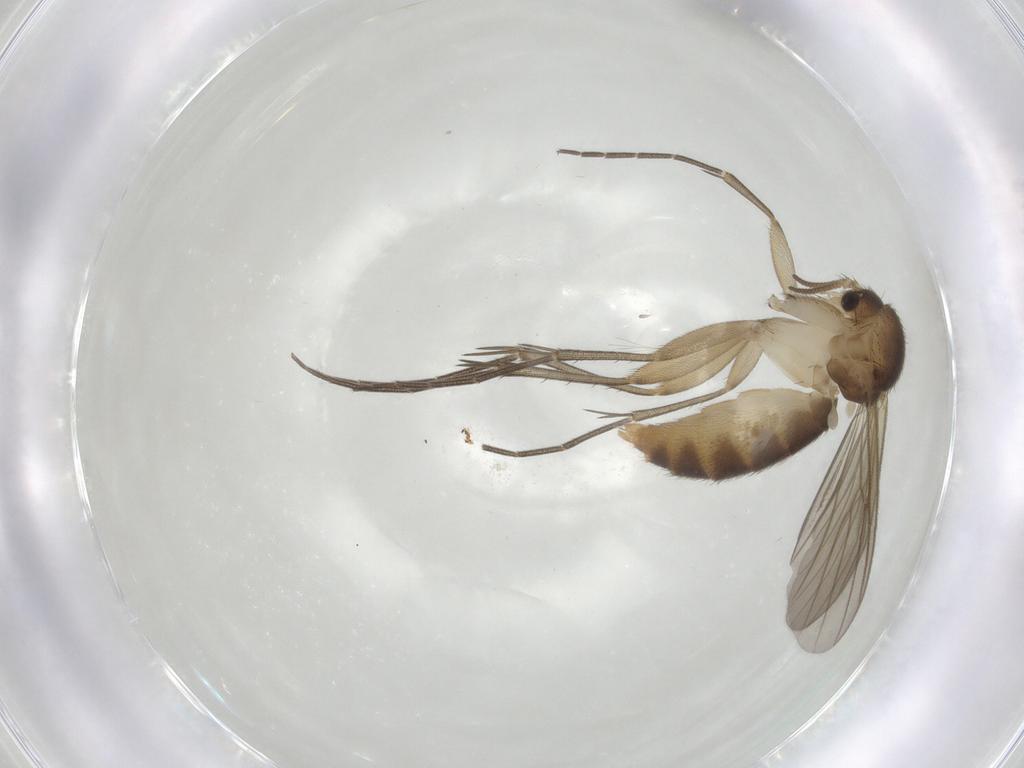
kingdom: Animalia
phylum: Arthropoda
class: Insecta
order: Diptera
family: Mycetophilidae
